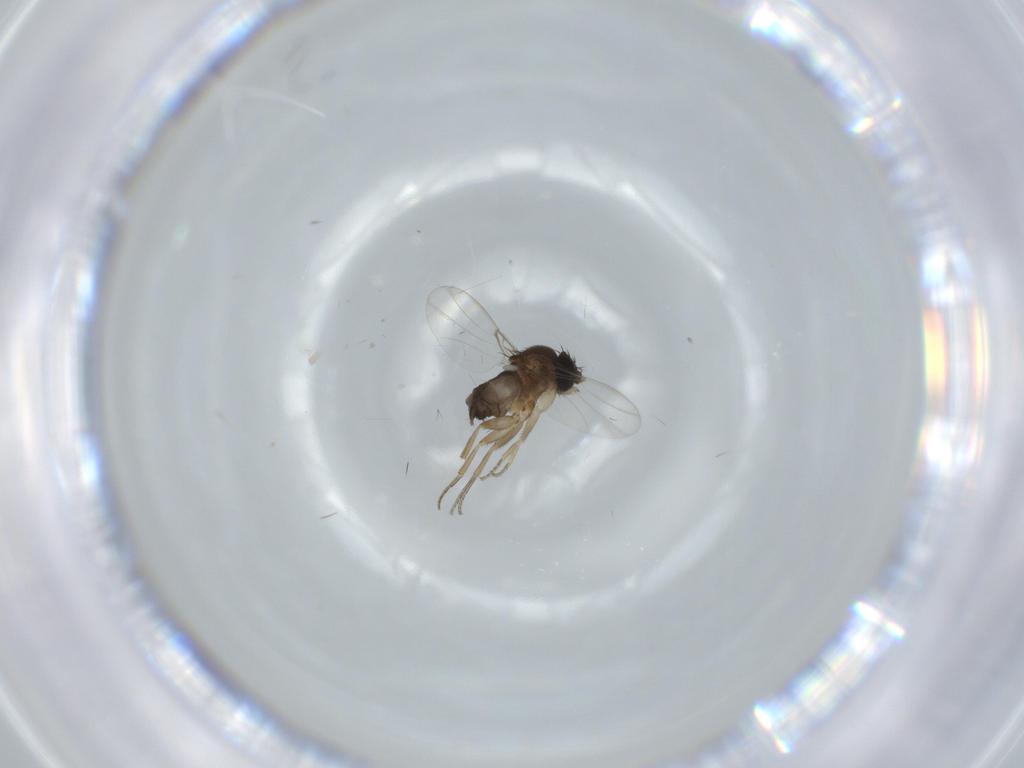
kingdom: Animalia
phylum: Arthropoda
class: Insecta
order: Diptera
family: Phoridae
